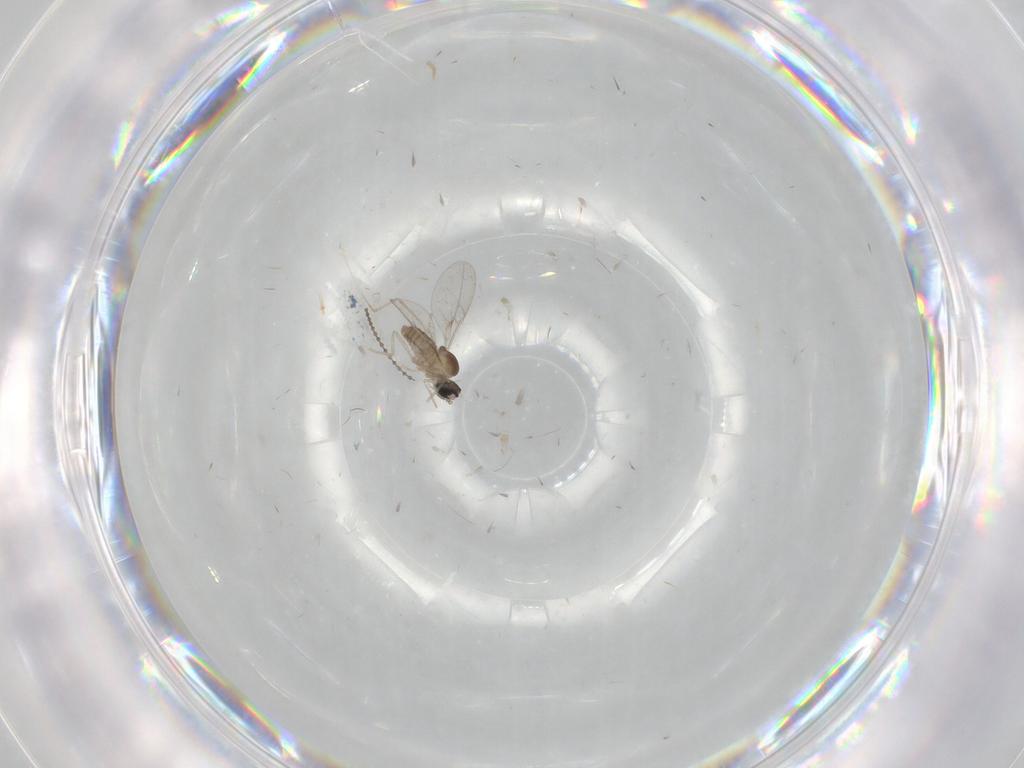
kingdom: Animalia
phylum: Arthropoda
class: Insecta
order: Diptera
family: Cecidomyiidae
